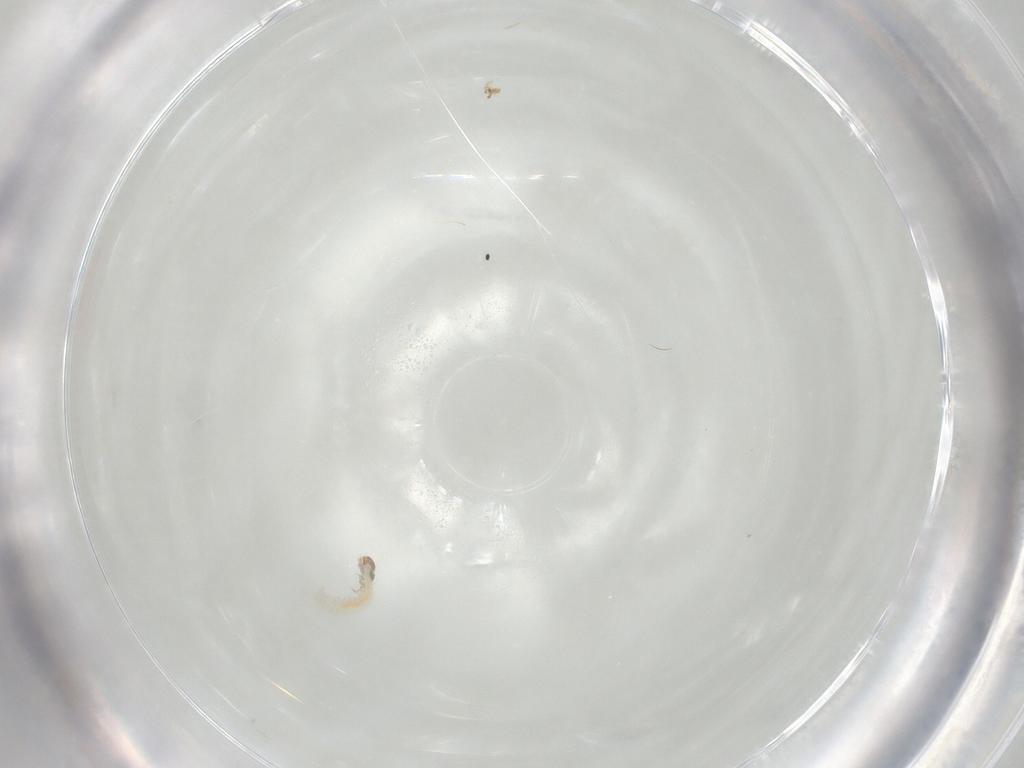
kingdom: Animalia
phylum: Arthropoda
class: Insecta
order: Lepidoptera
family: Lecithoceridae
